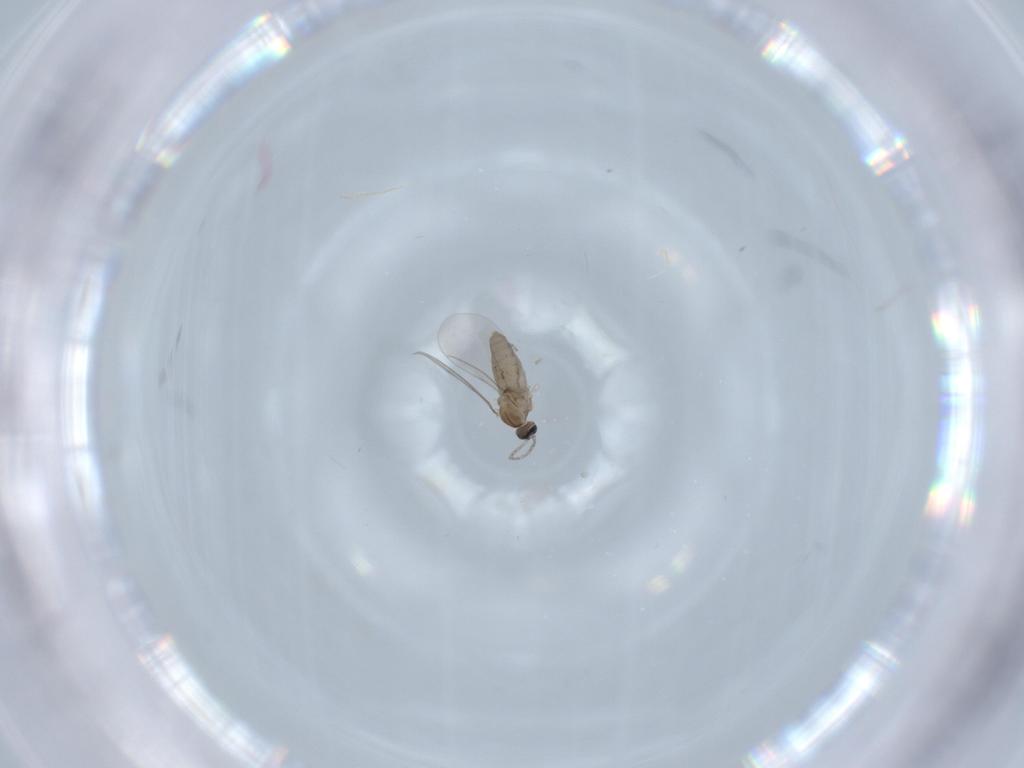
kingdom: Animalia
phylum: Arthropoda
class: Insecta
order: Diptera
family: Cecidomyiidae
